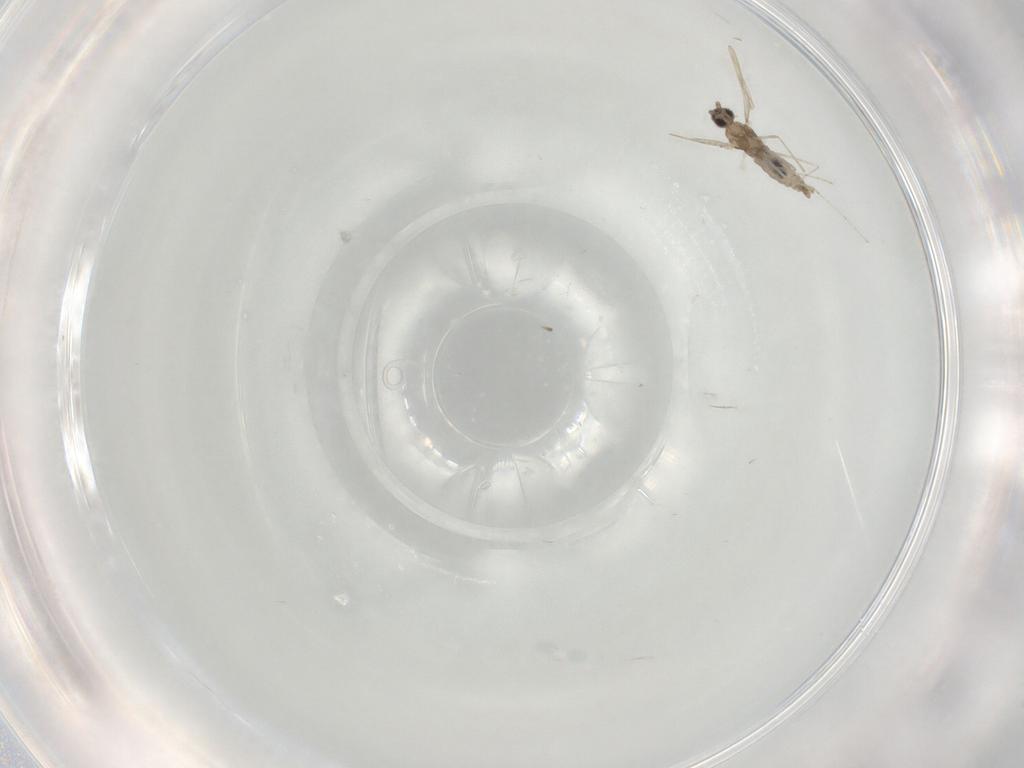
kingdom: Animalia
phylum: Arthropoda
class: Insecta
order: Diptera
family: Cecidomyiidae
